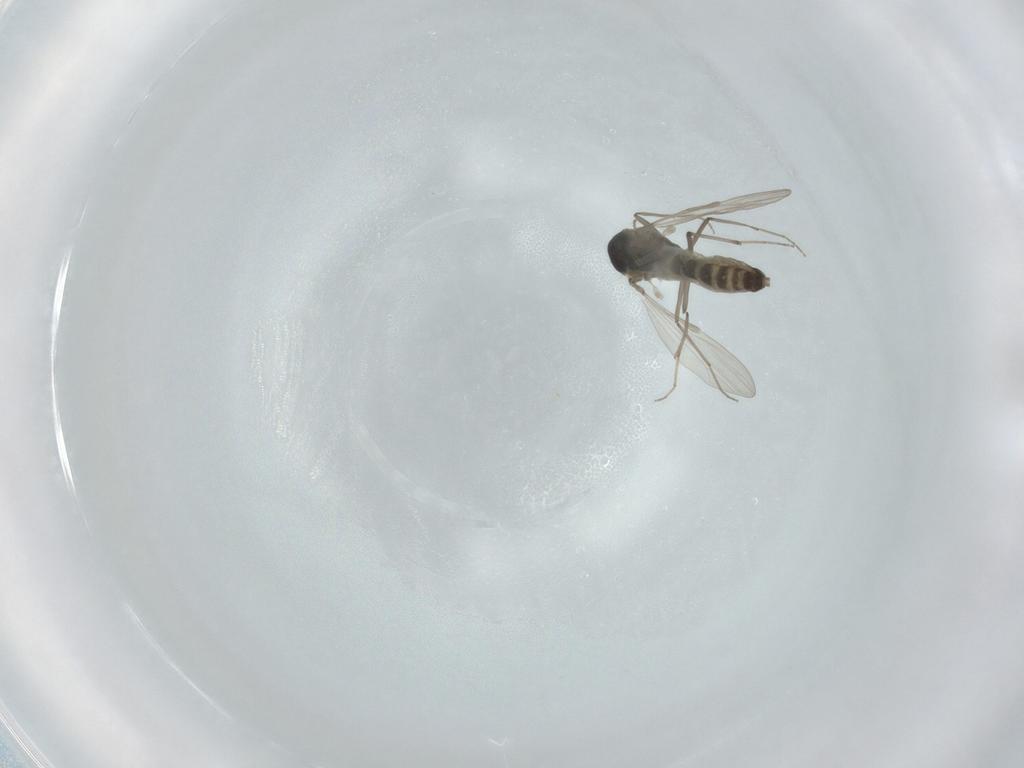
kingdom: Animalia
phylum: Arthropoda
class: Insecta
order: Diptera
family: Chironomidae
